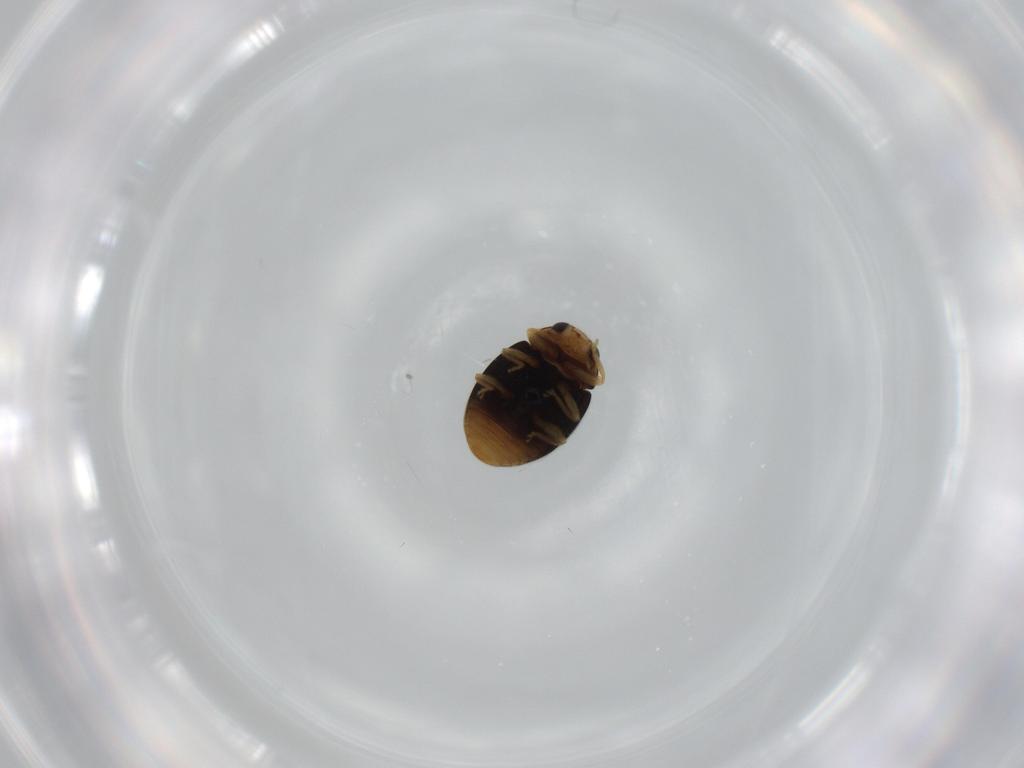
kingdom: Animalia
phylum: Arthropoda
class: Insecta
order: Coleoptera
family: Coccinellidae
